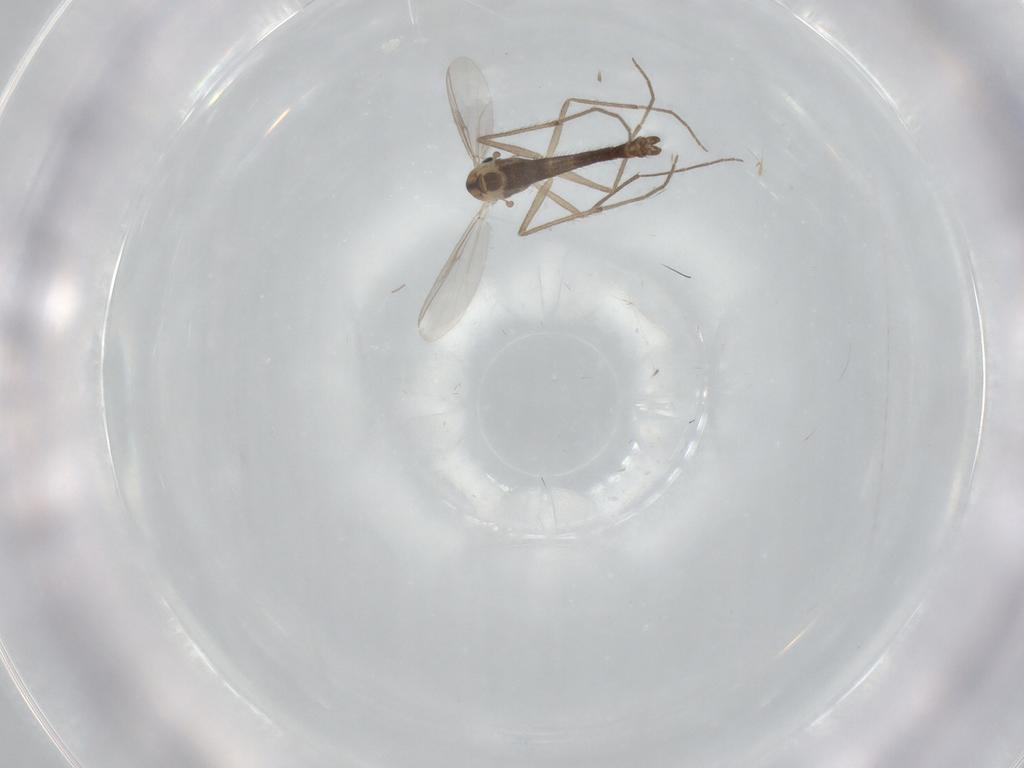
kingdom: Animalia
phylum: Arthropoda
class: Insecta
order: Diptera
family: Chironomidae
